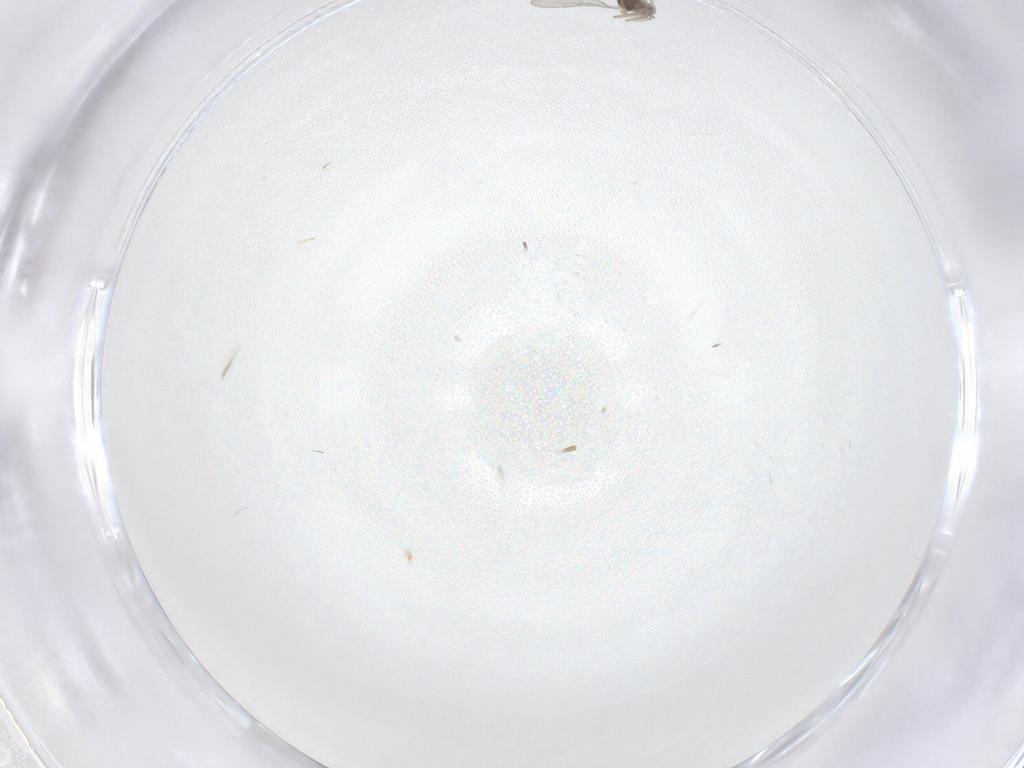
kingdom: Animalia
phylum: Arthropoda
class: Insecta
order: Diptera
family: Cecidomyiidae
